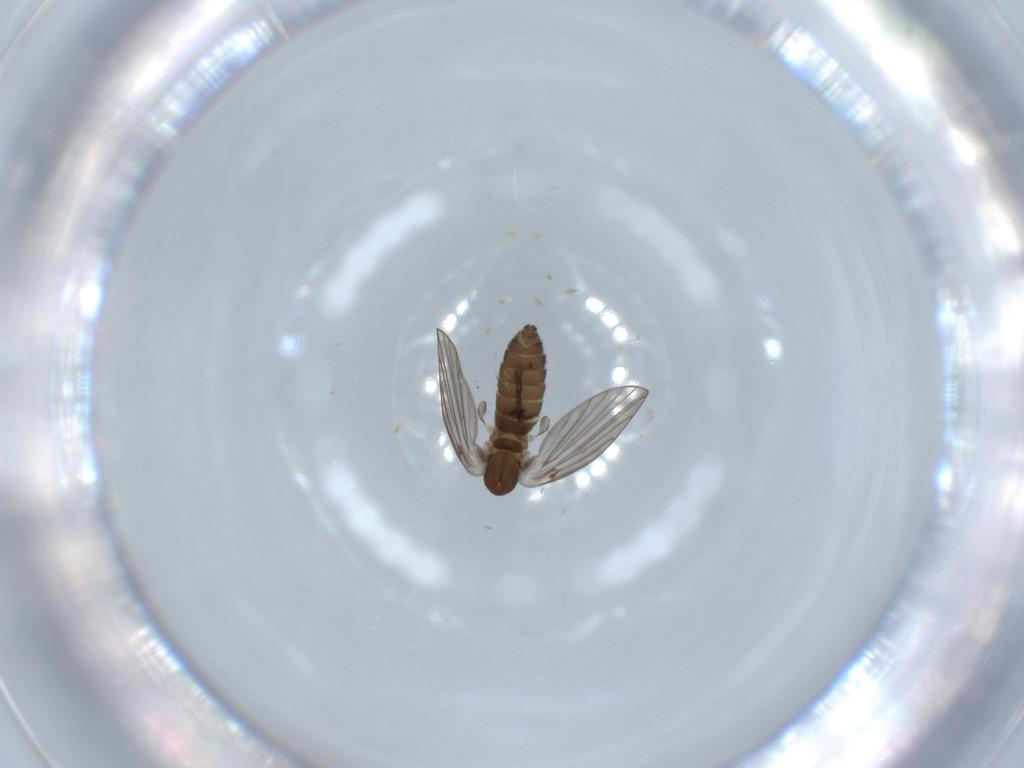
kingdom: Animalia
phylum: Arthropoda
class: Insecta
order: Diptera
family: Psychodidae
